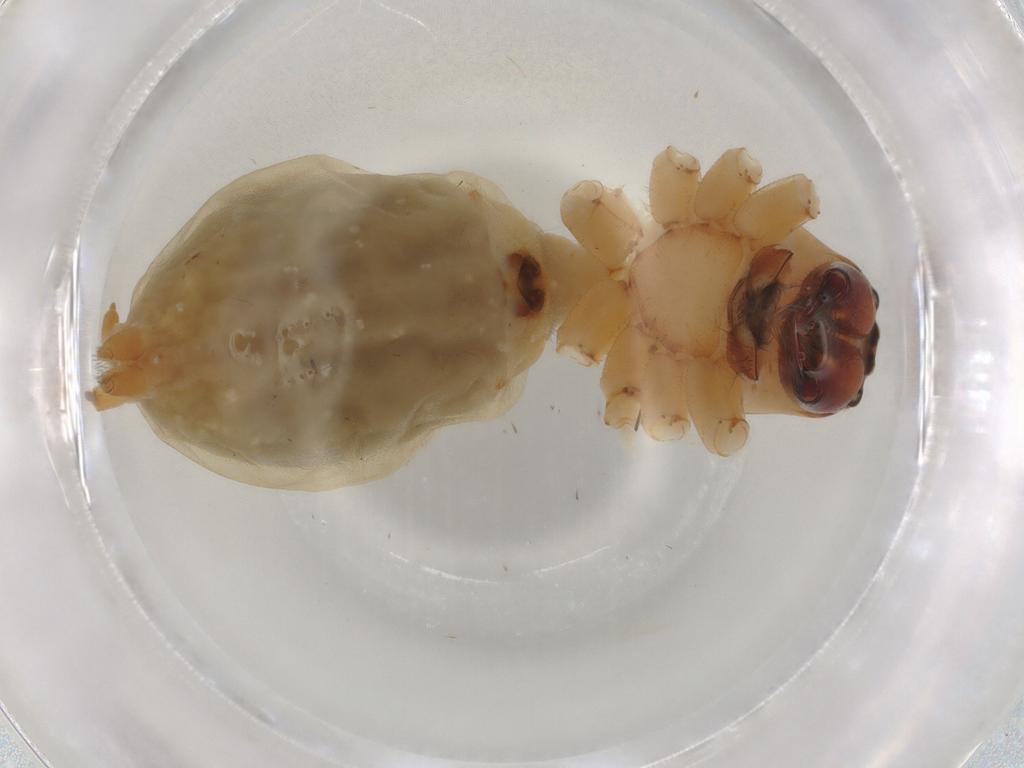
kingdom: Animalia
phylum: Arthropoda
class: Arachnida
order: Araneae
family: Cheiracanthiidae
